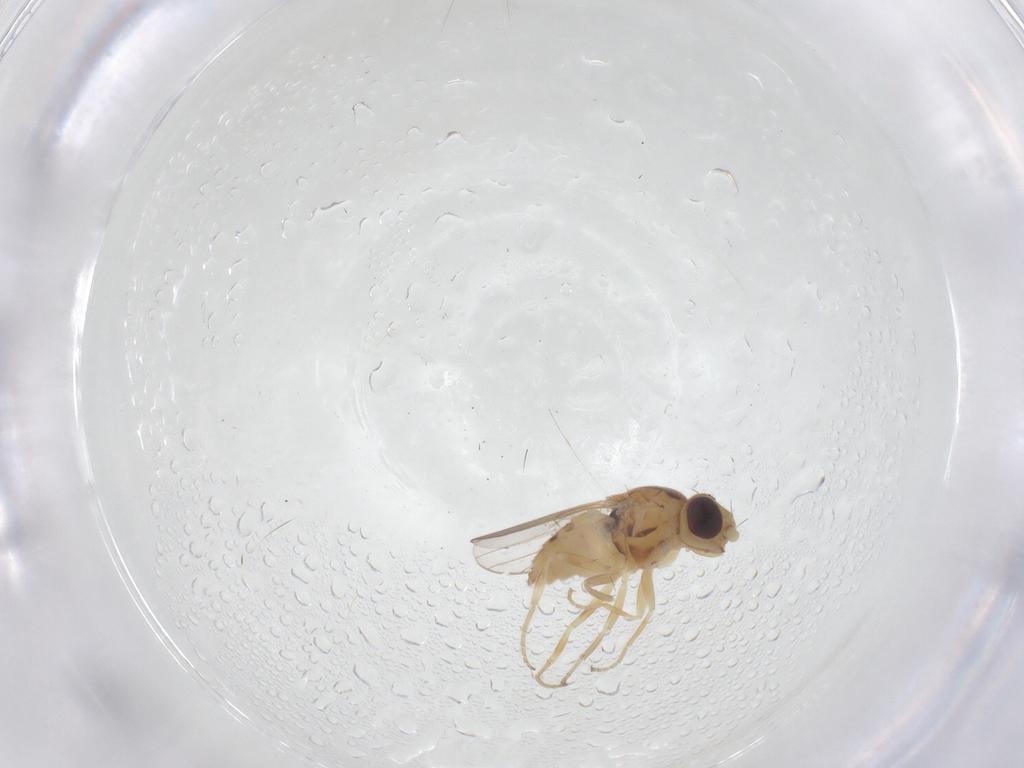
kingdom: Animalia
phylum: Arthropoda
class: Insecta
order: Diptera
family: Chloropidae
